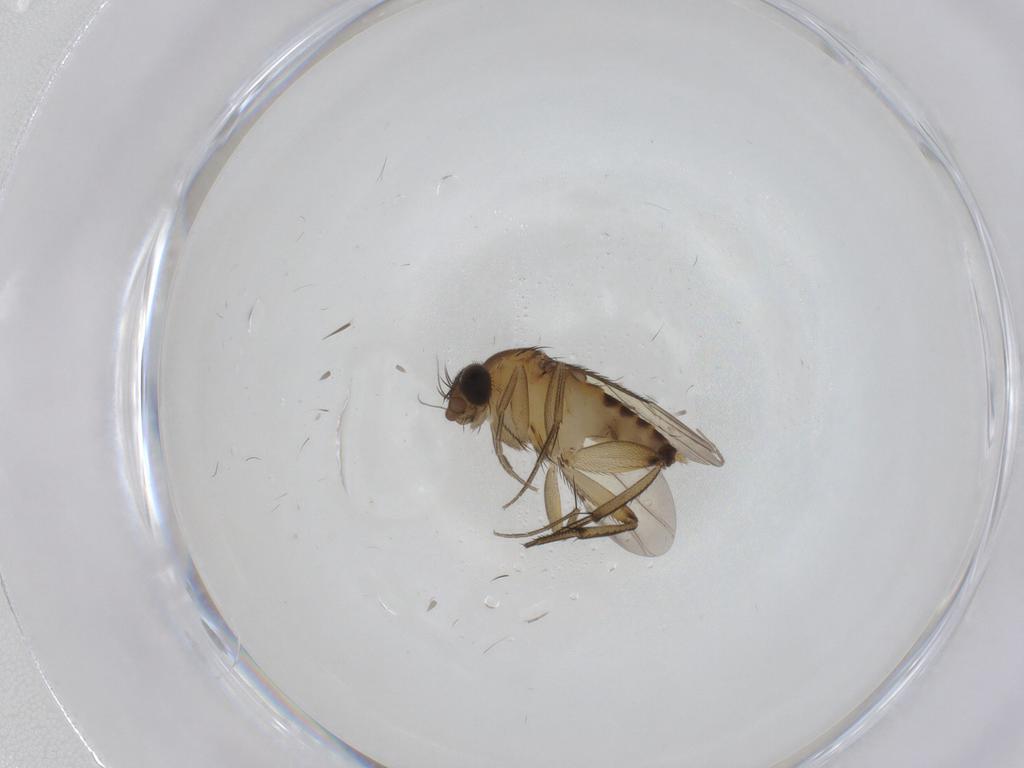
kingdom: Animalia
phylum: Arthropoda
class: Insecta
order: Diptera
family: Phoridae
